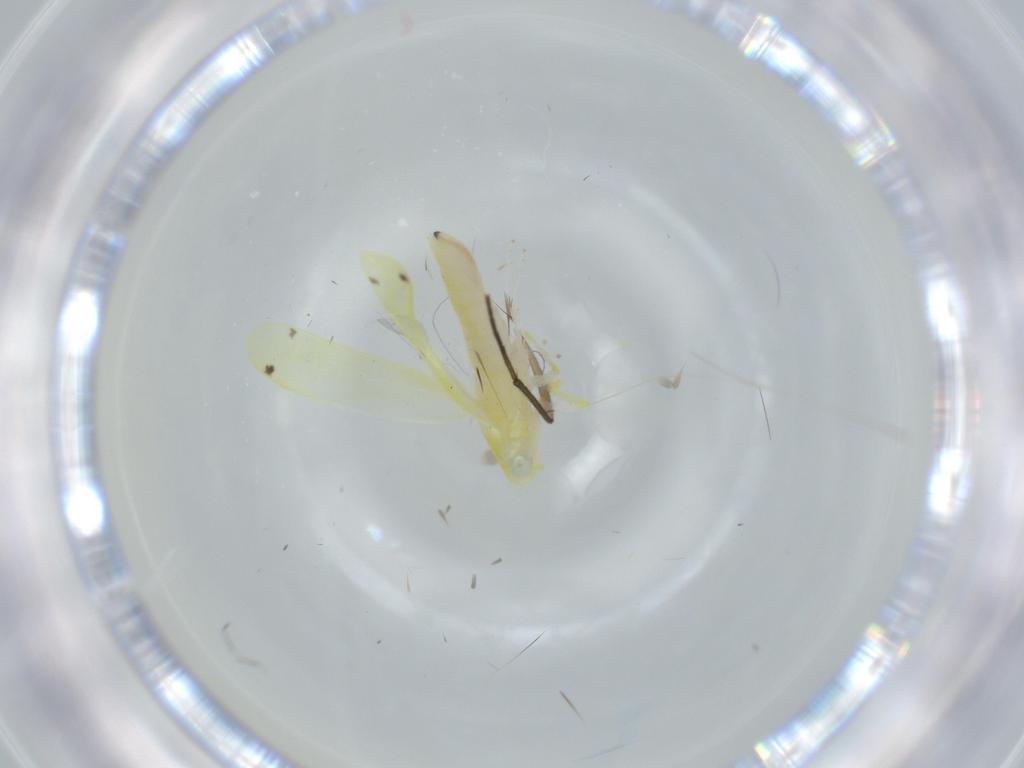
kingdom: Animalia
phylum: Arthropoda
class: Insecta
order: Hemiptera
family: Cicadellidae
